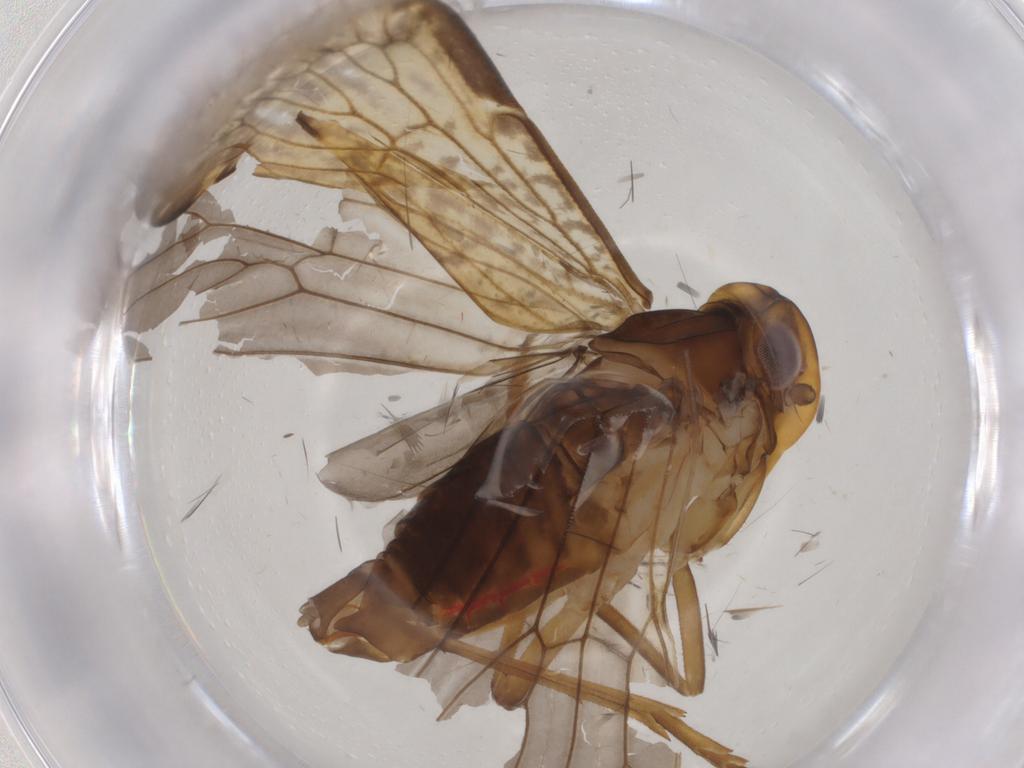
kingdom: Animalia
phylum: Arthropoda
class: Insecta
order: Hemiptera
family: Cixiidae
